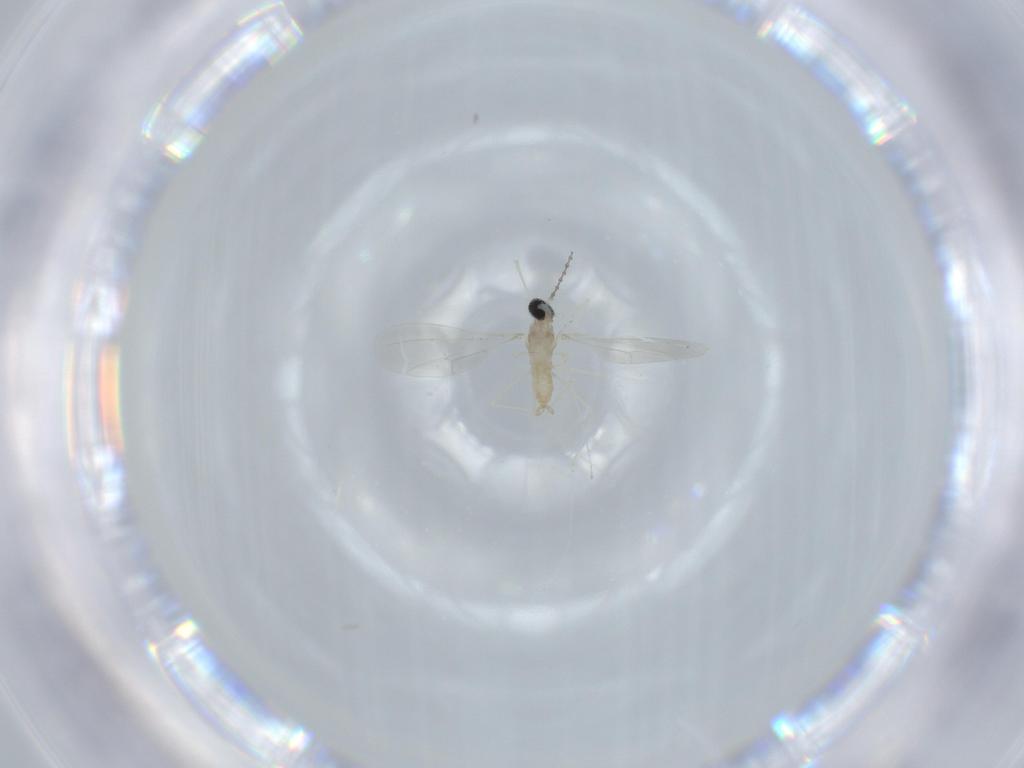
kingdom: Animalia
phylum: Arthropoda
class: Insecta
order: Diptera
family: Cecidomyiidae
